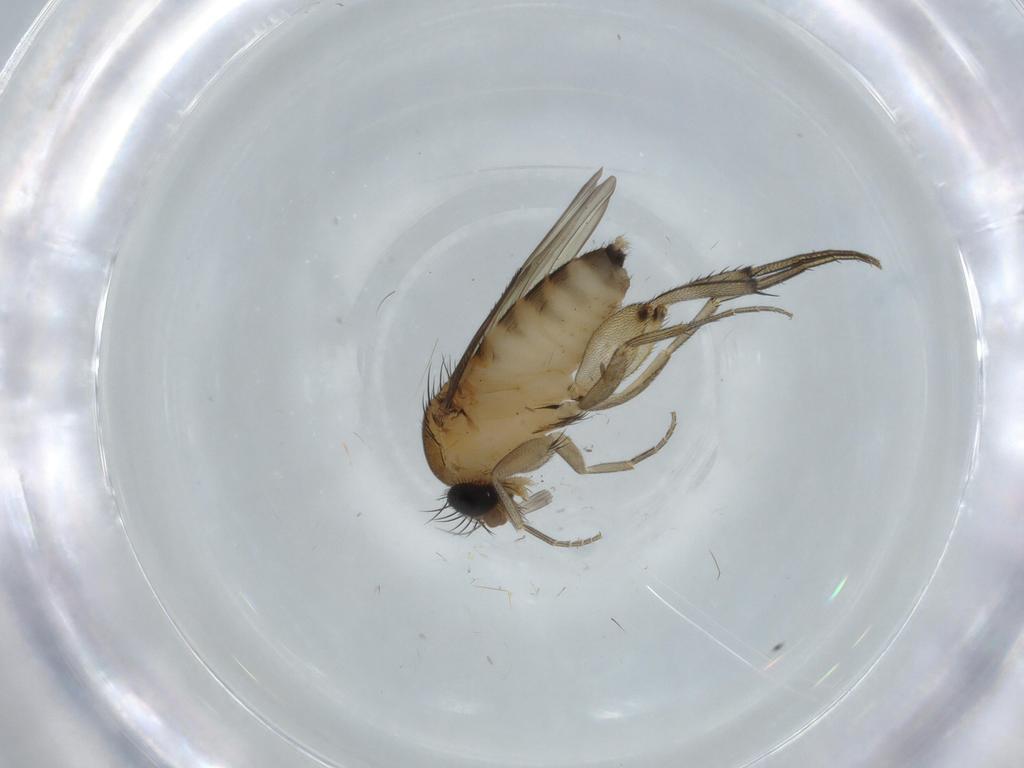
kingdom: Animalia
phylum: Arthropoda
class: Insecta
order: Diptera
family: Phoridae
